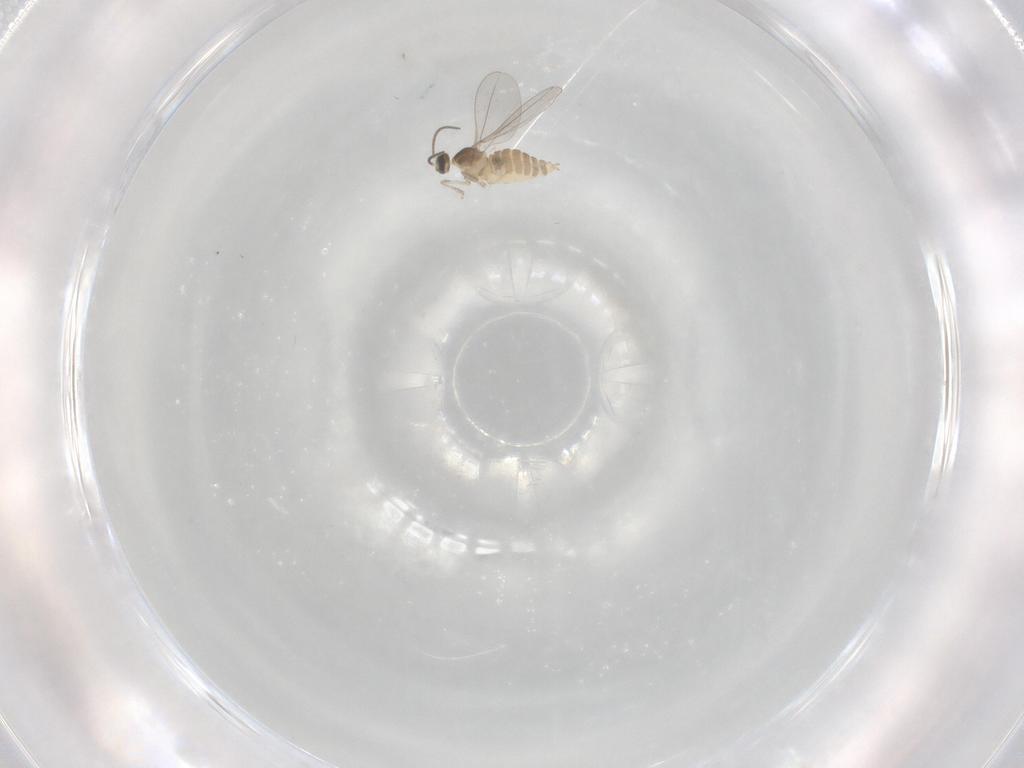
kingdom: Animalia
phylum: Arthropoda
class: Insecta
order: Diptera
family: Cecidomyiidae
